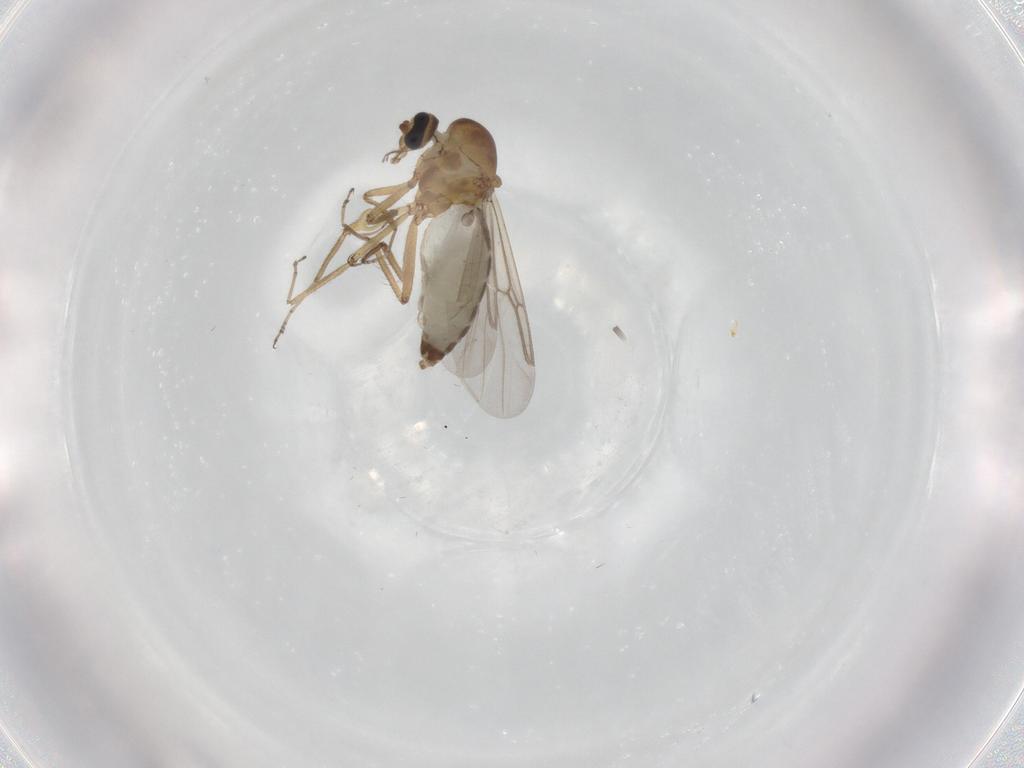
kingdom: Animalia
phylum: Arthropoda
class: Insecta
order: Diptera
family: Ceratopogonidae
